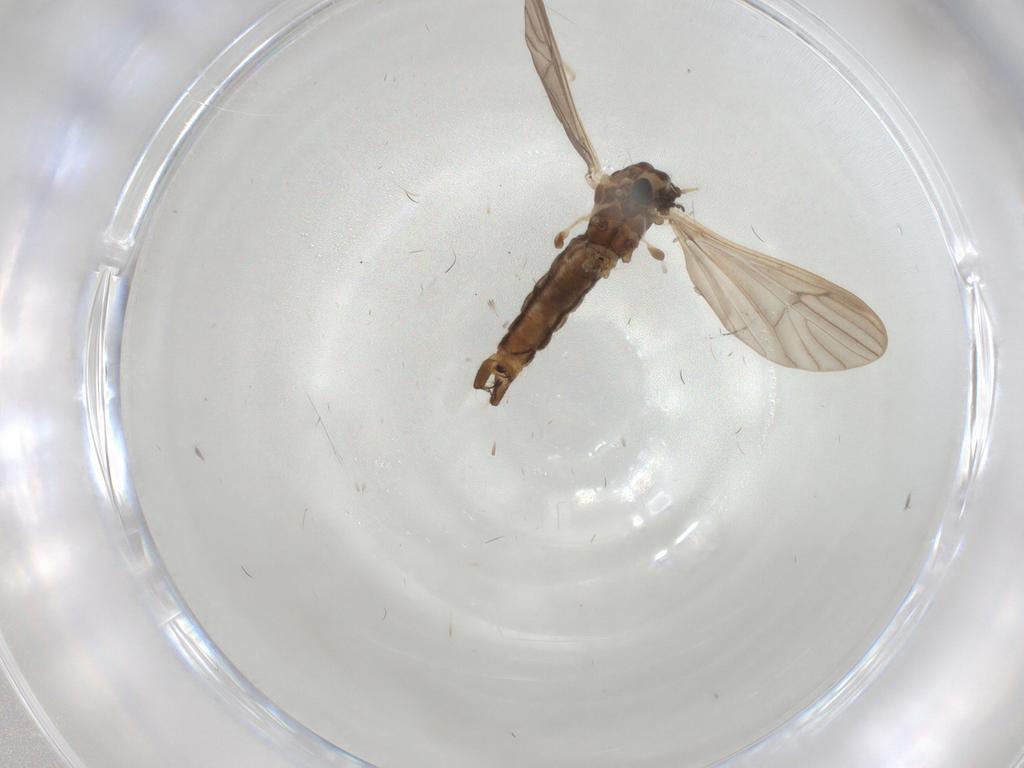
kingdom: Animalia
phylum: Arthropoda
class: Insecta
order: Diptera
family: Limoniidae
